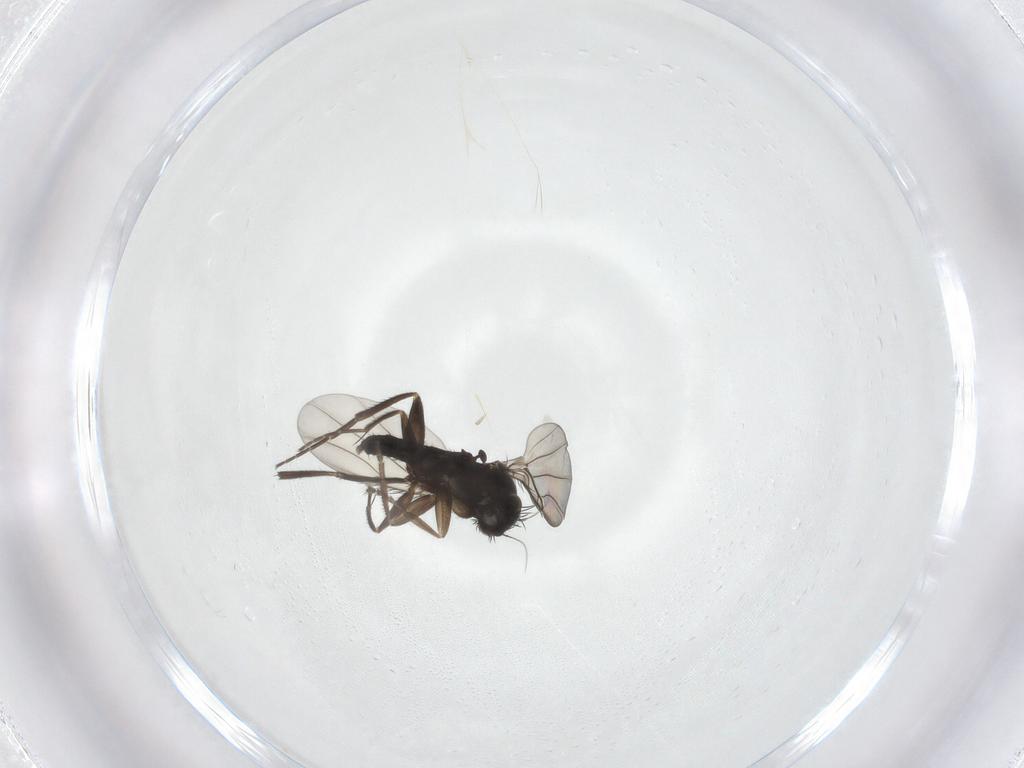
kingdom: Animalia
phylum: Arthropoda
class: Insecta
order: Diptera
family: Phoridae
